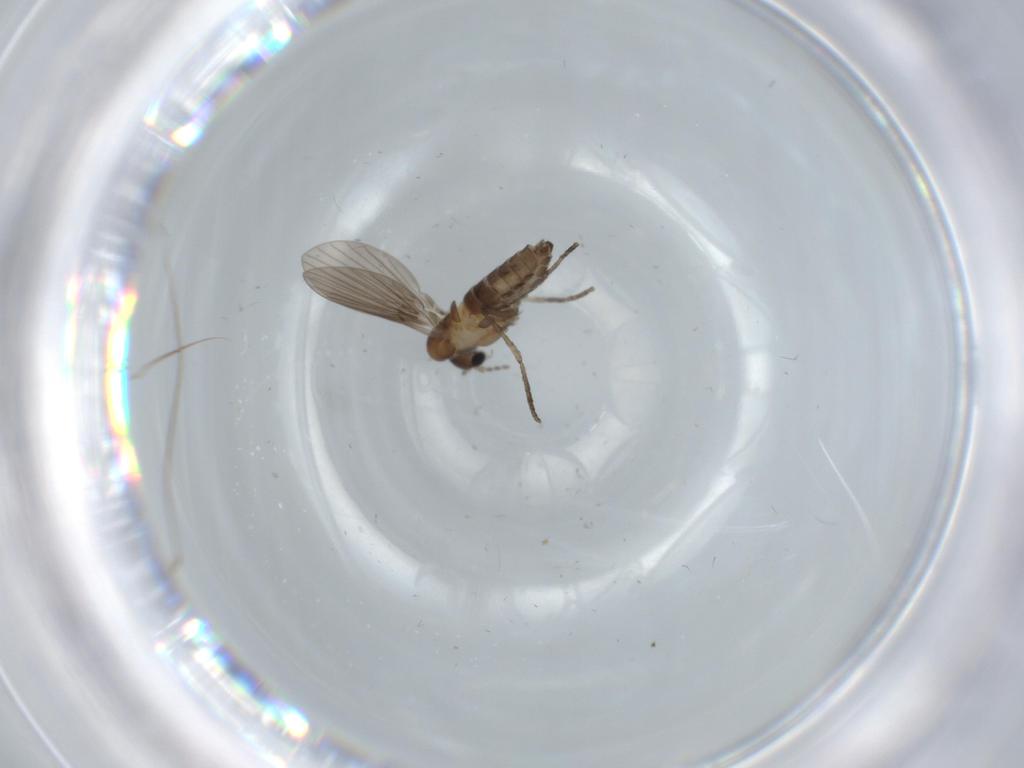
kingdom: Animalia
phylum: Arthropoda
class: Insecta
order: Diptera
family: Psychodidae
